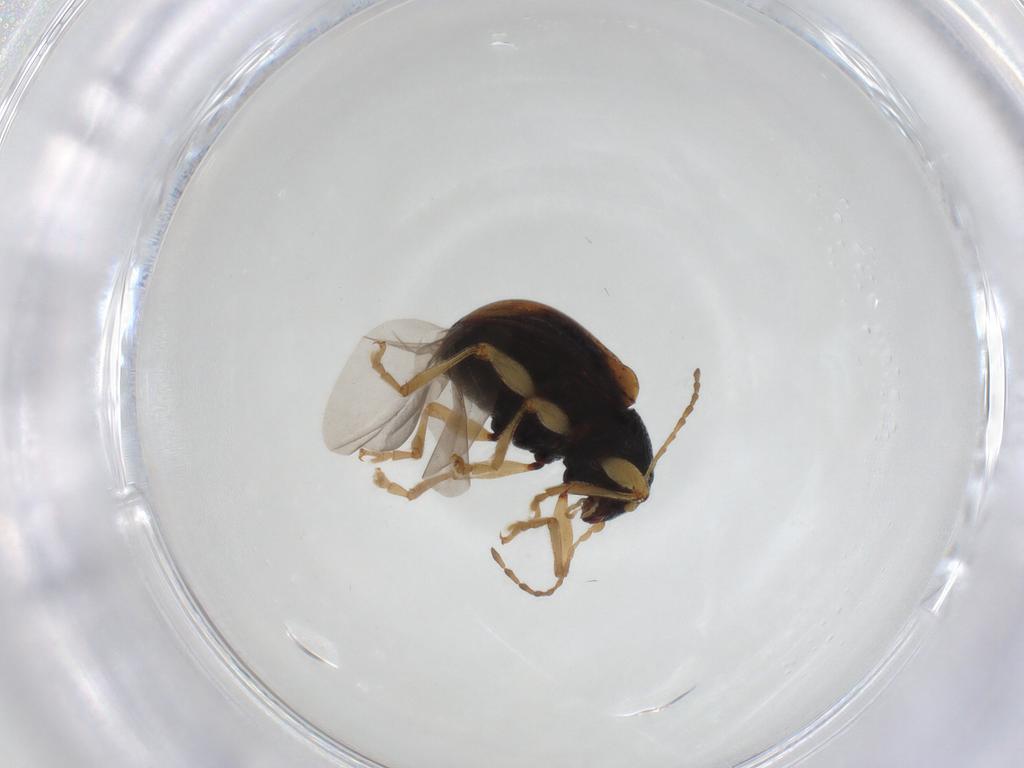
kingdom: Animalia
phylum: Arthropoda
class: Insecta
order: Coleoptera
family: Chrysomelidae
